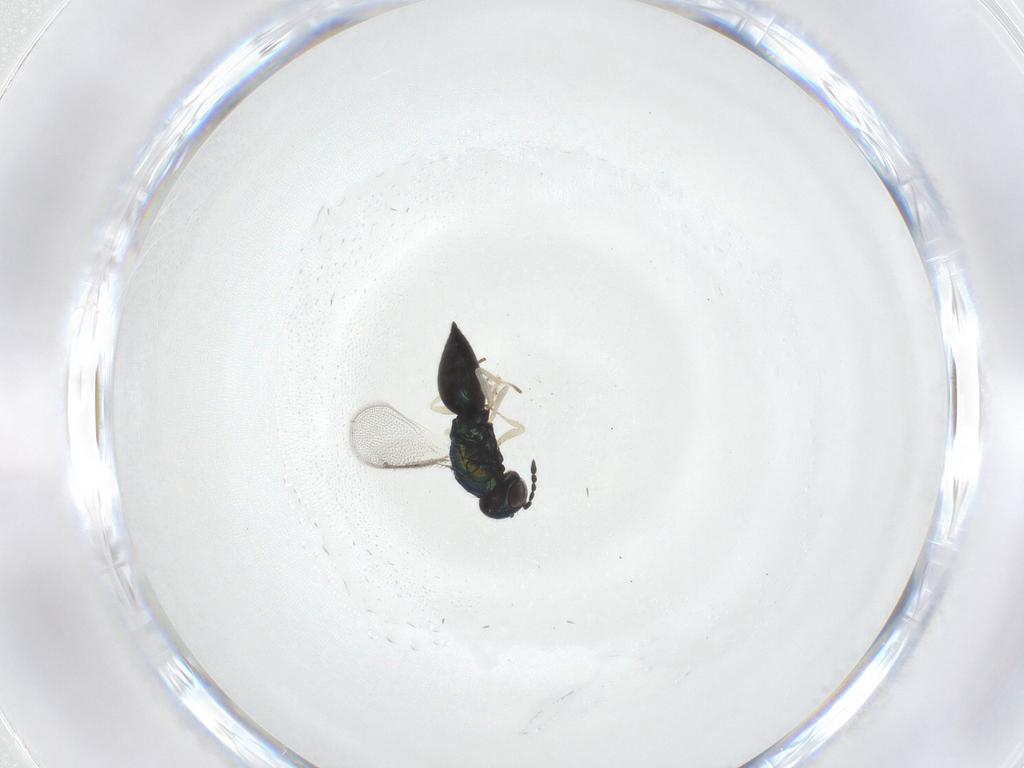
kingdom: Animalia
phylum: Arthropoda
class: Insecta
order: Hymenoptera
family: Eulophidae
